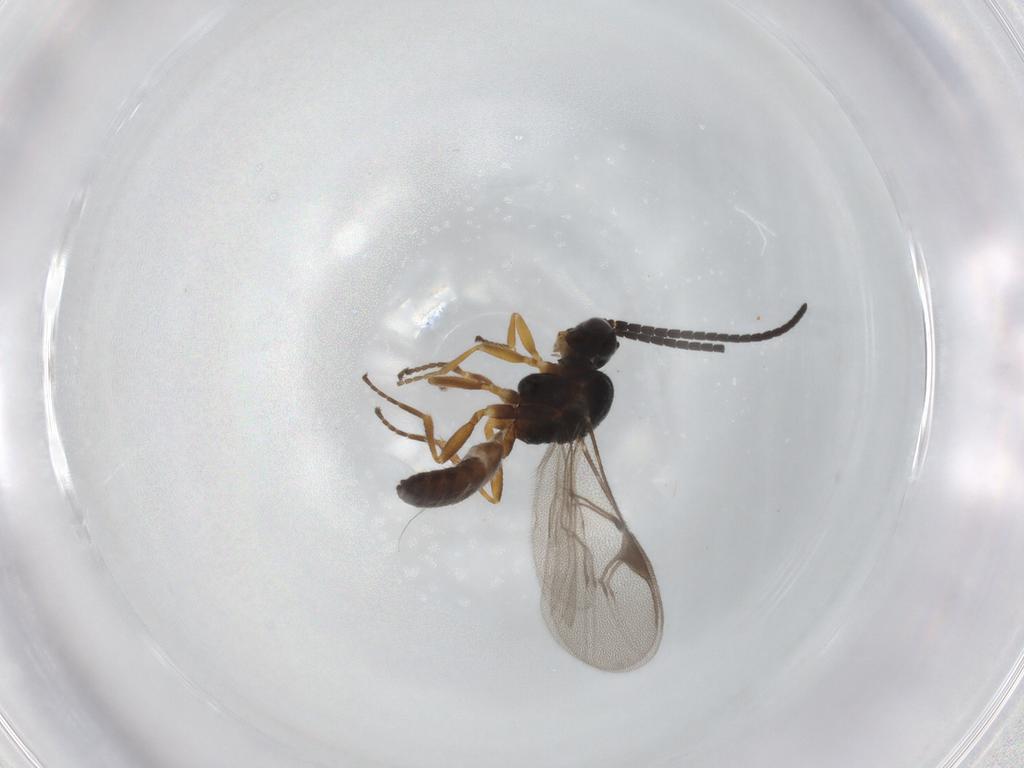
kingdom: Animalia
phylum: Arthropoda
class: Insecta
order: Hymenoptera
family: Braconidae
